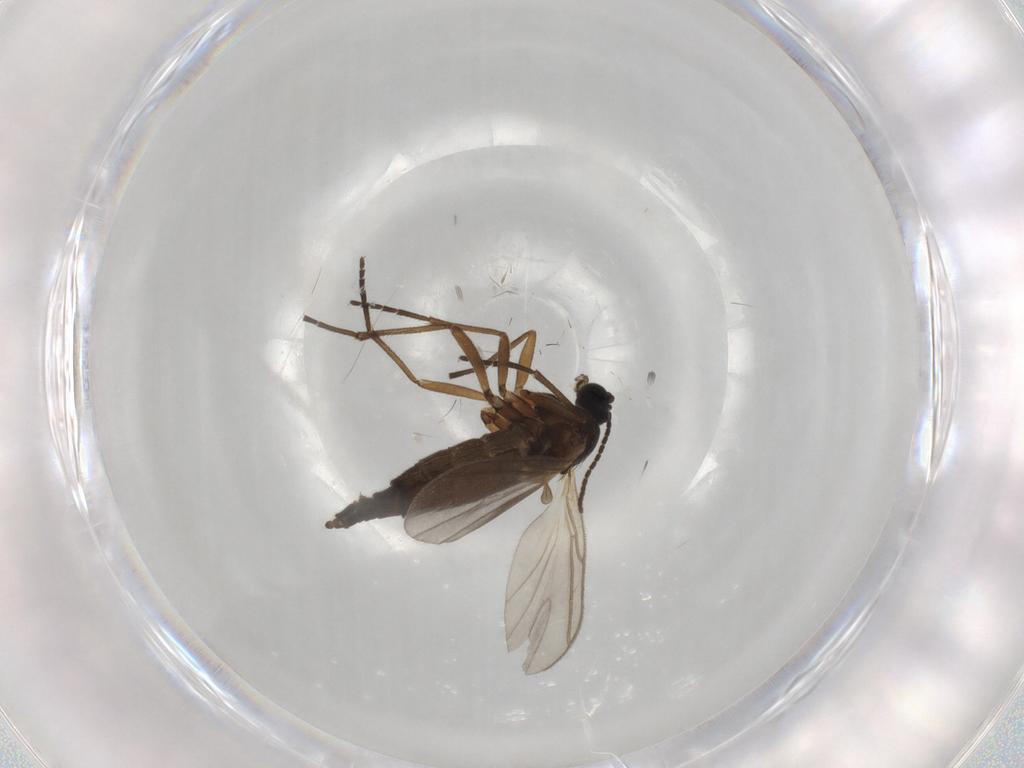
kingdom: Animalia
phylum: Arthropoda
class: Insecta
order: Diptera
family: Sciaridae
